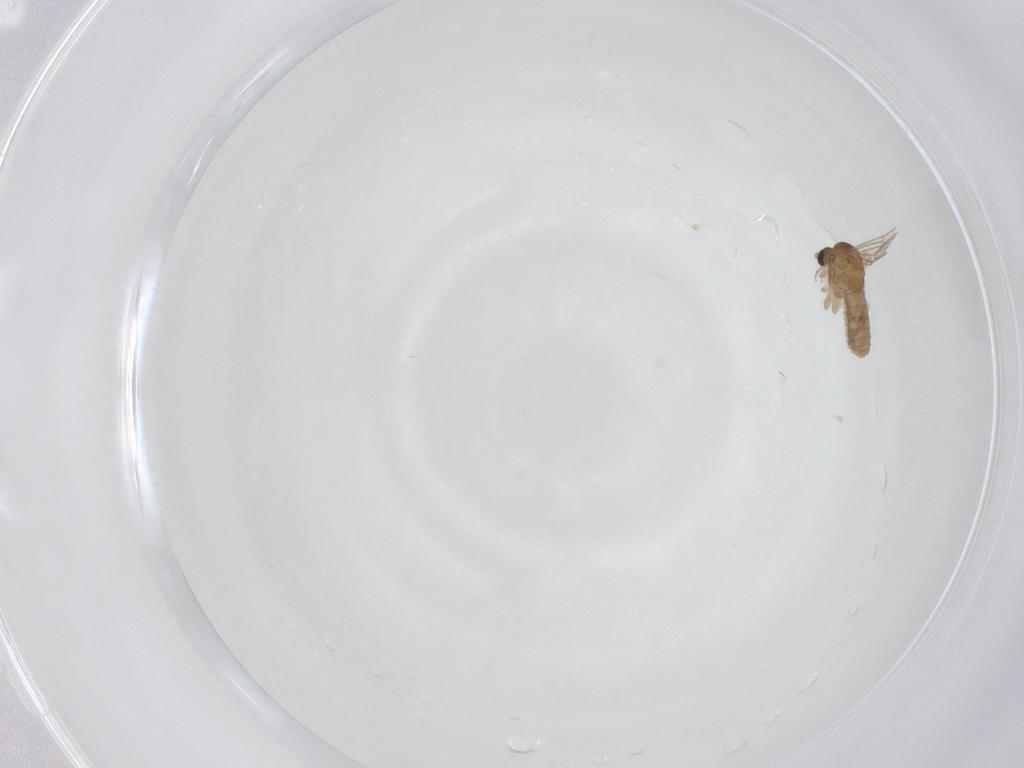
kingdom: Animalia
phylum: Arthropoda
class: Insecta
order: Diptera
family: Psychodidae
